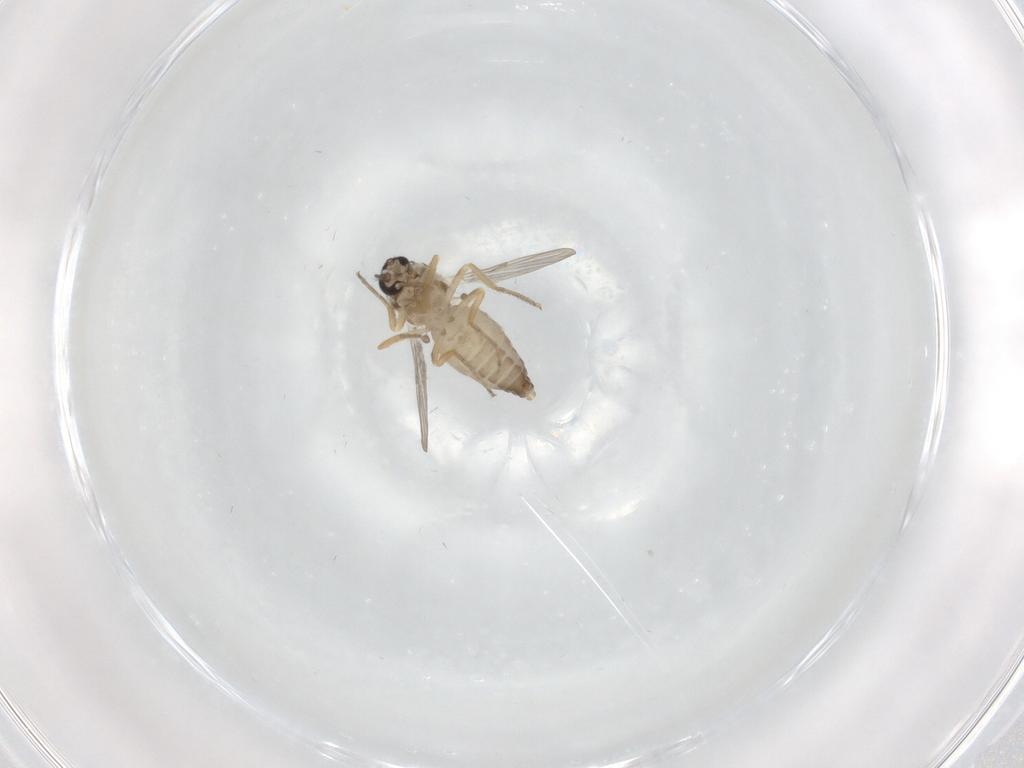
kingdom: Animalia
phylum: Arthropoda
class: Insecta
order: Diptera
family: Ceratopogonidae
